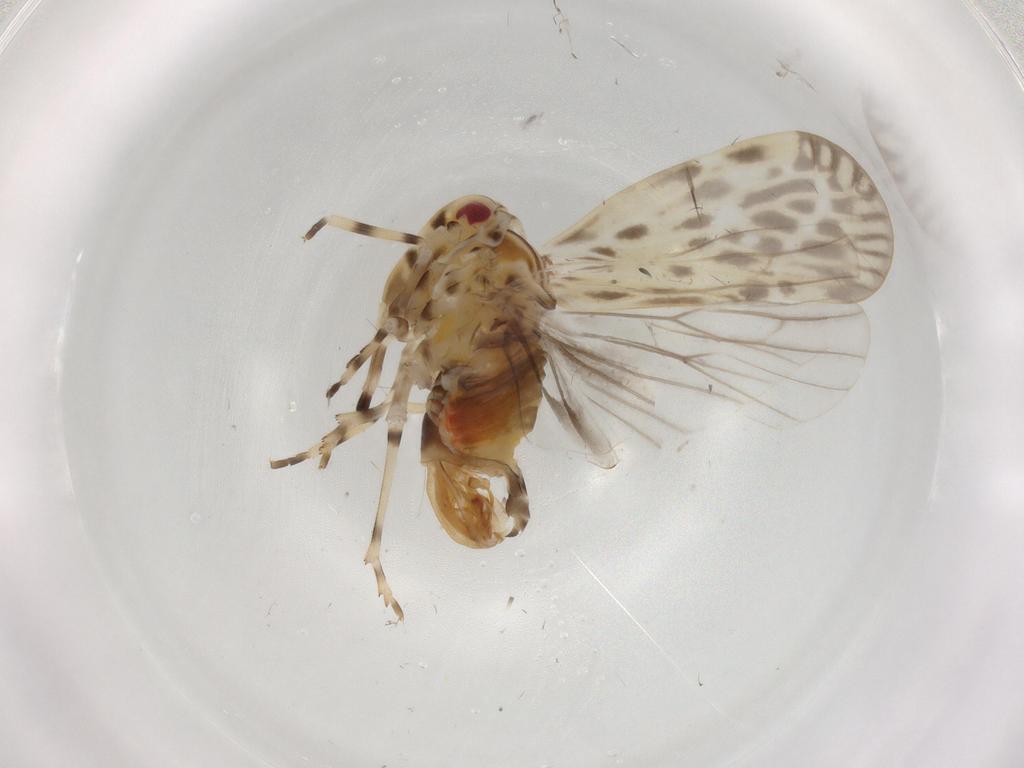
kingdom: Animalia
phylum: Arthropoda
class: Insecta
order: Hemiptera
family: Derbidae
